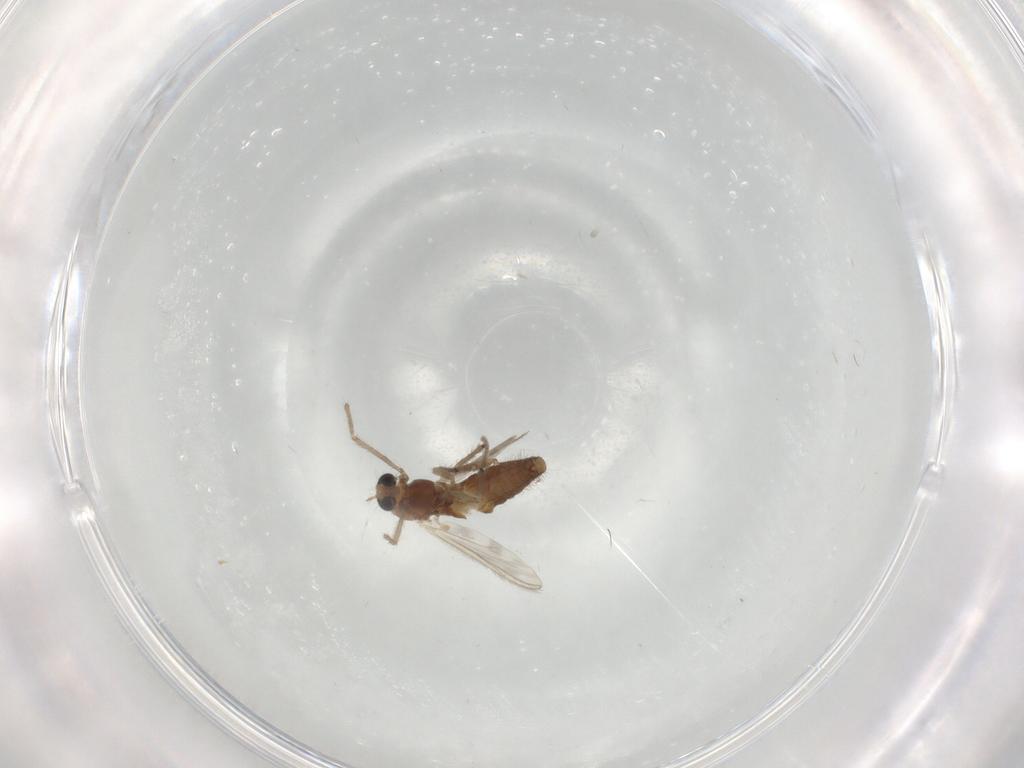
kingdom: Animalia
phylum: Arthropoda
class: Insecta
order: Diptera
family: Chironomidae
